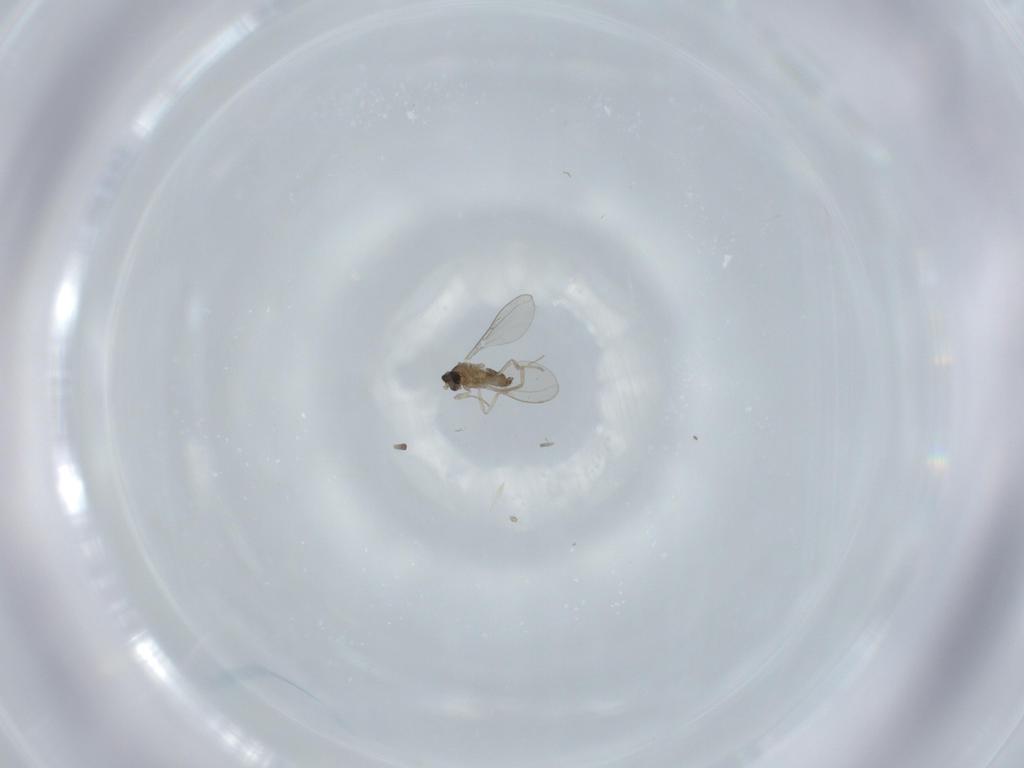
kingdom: Animalia
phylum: Arthropoda
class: Insecta
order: Diptera
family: Cecidomyiidae
